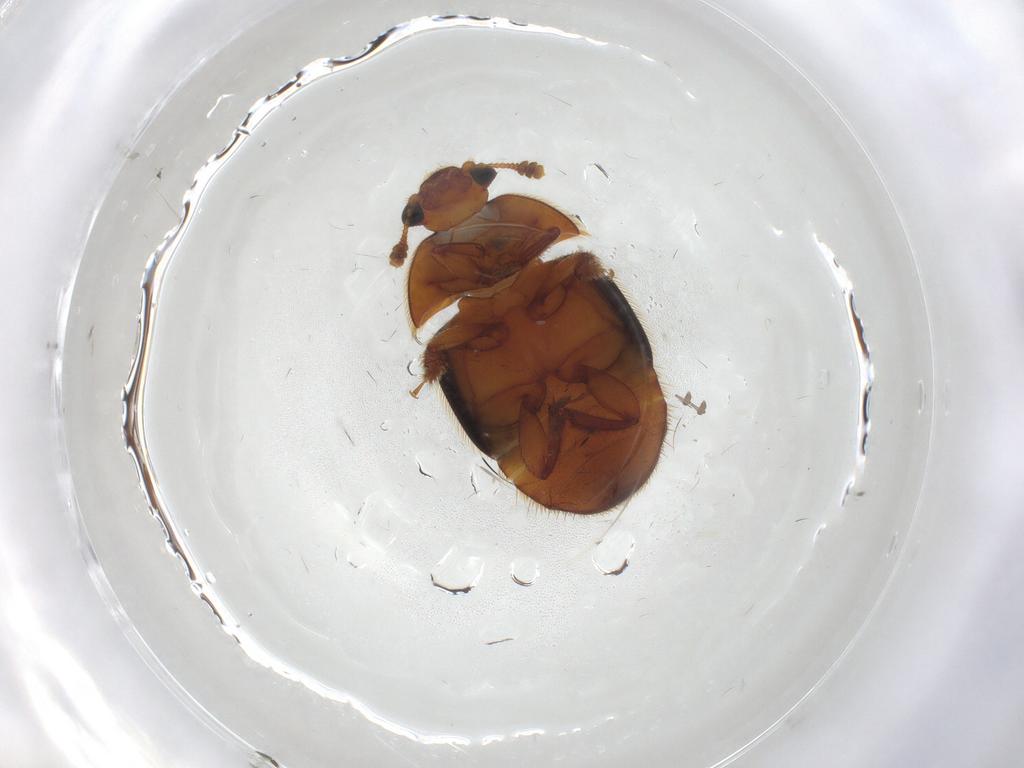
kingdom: Animalia
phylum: Arthropoda
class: Insecta
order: Coleoptera
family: Nitidulidae
